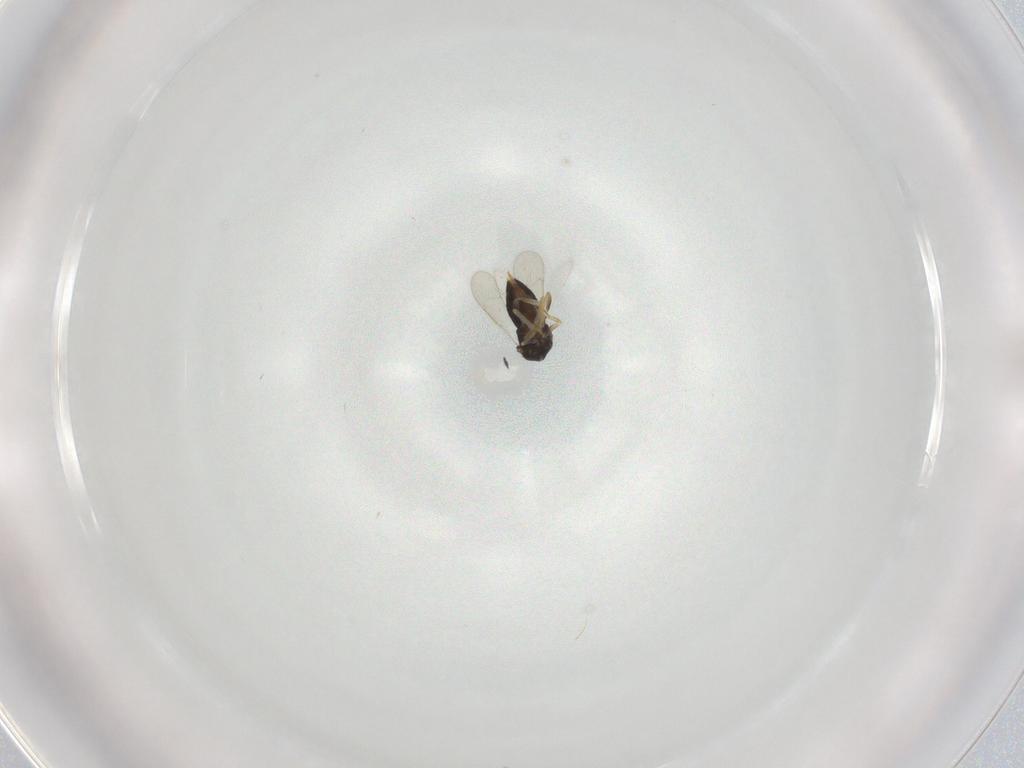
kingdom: Animalia
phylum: Arthropoda
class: Insecta
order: Hymenoptera
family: Aphelinidae
